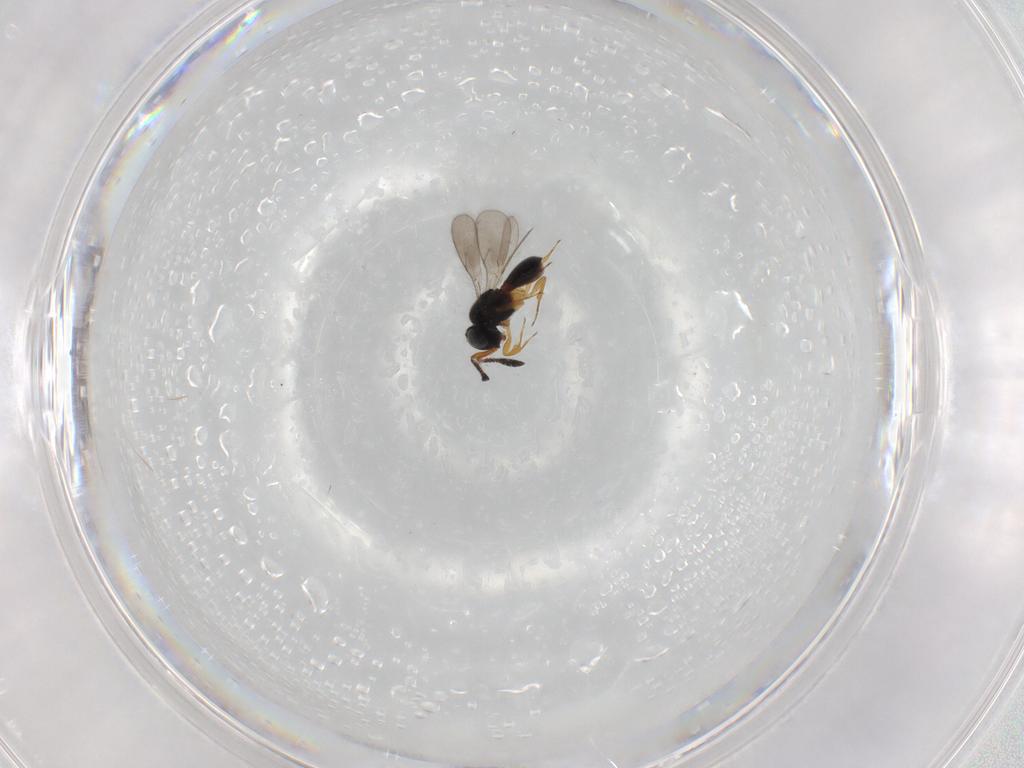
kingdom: Animalia
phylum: Arthropoda
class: Insecta
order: Hymenoptera
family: Scelionidae
